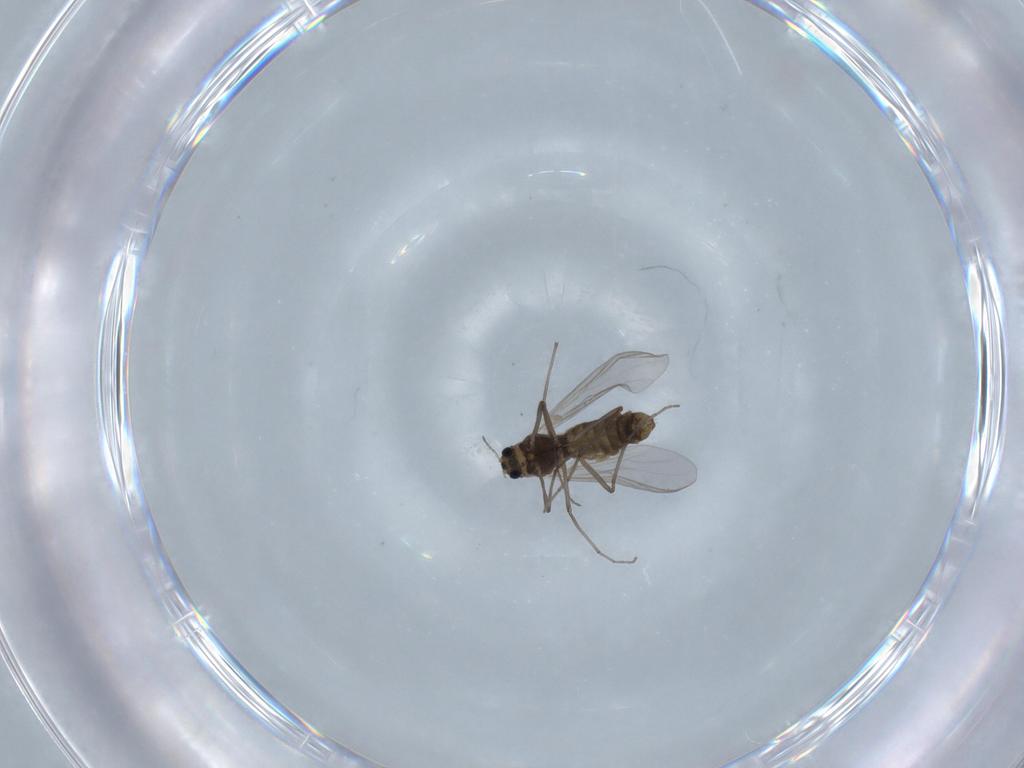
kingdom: Animalia
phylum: Arthropoda
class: Insecta
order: Diptera
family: Chironomidae
